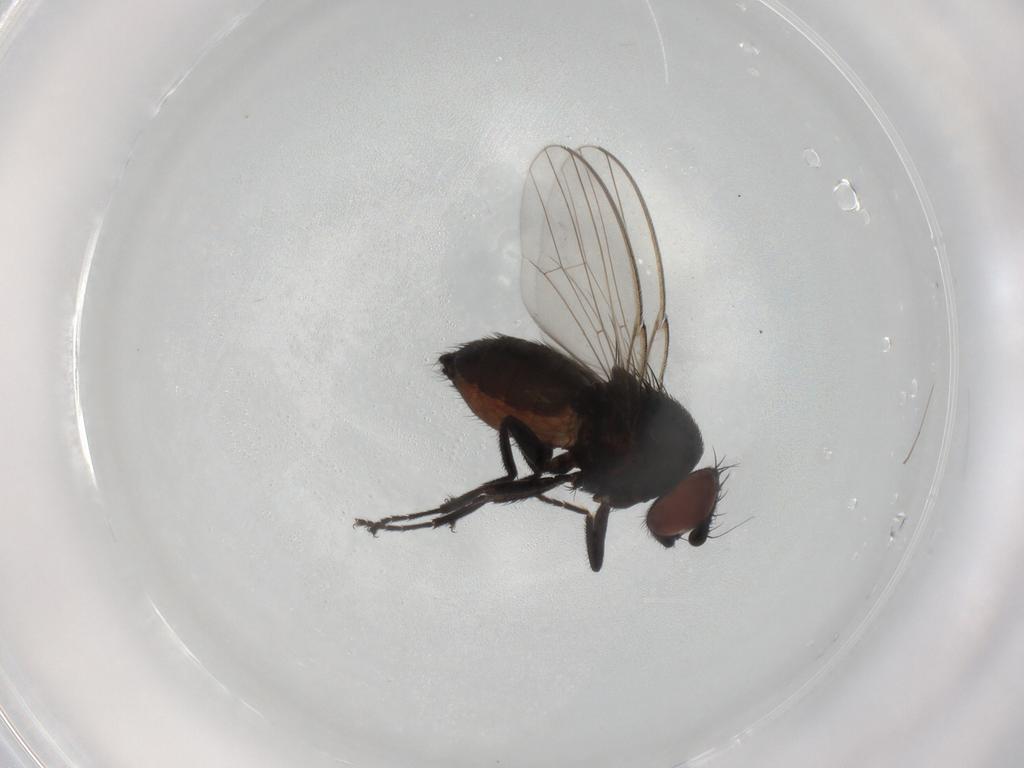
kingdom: Animalia
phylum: Arthropoda
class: Insecta
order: Diptera
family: Milichiidae
